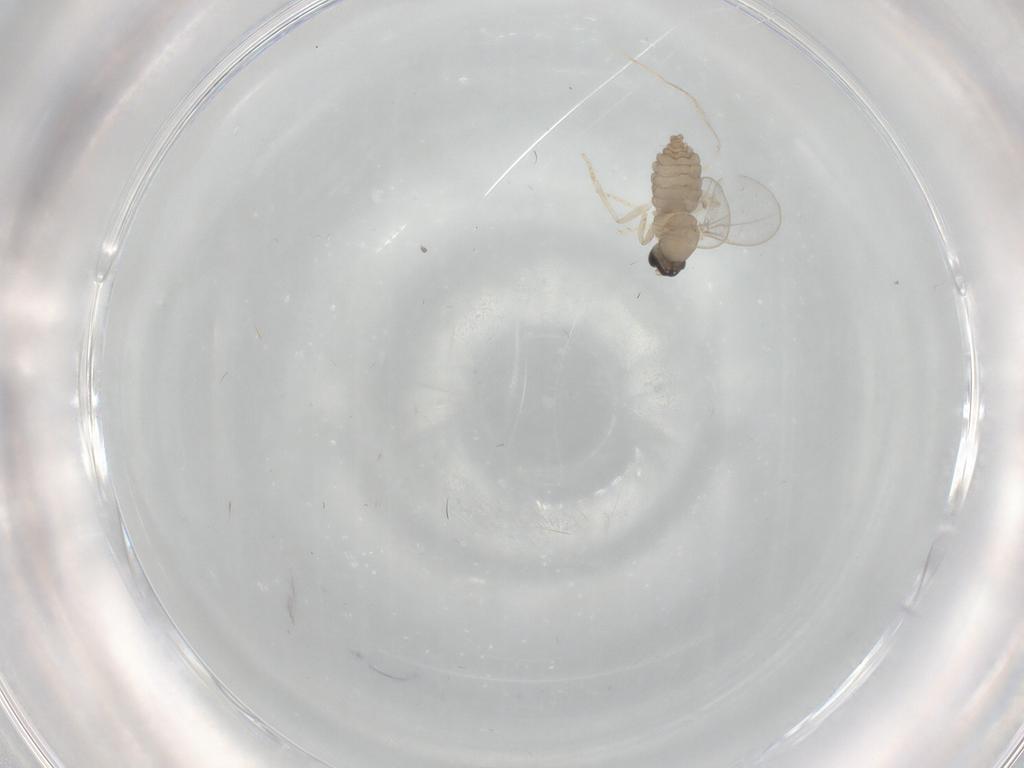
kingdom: Animalia
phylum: Arthropoda
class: Insecta
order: Diptera
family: Cecidomyiidae
